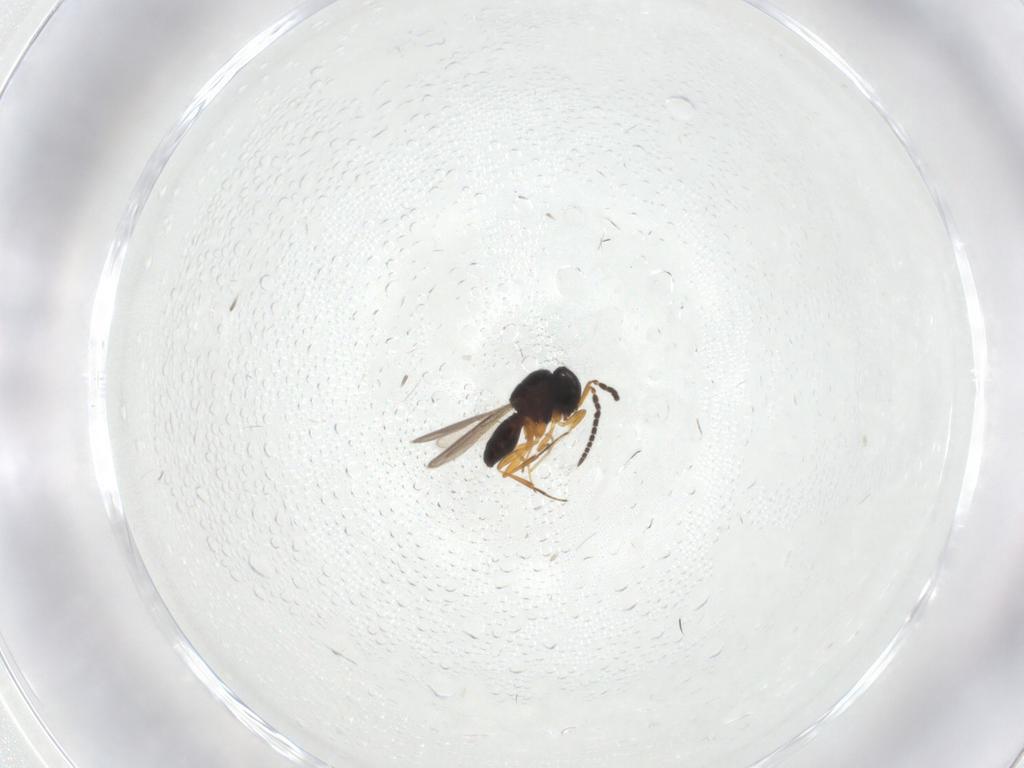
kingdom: Animalia
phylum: Arthropoda
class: Insecta
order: Hymenoptera
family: Scelionidae
